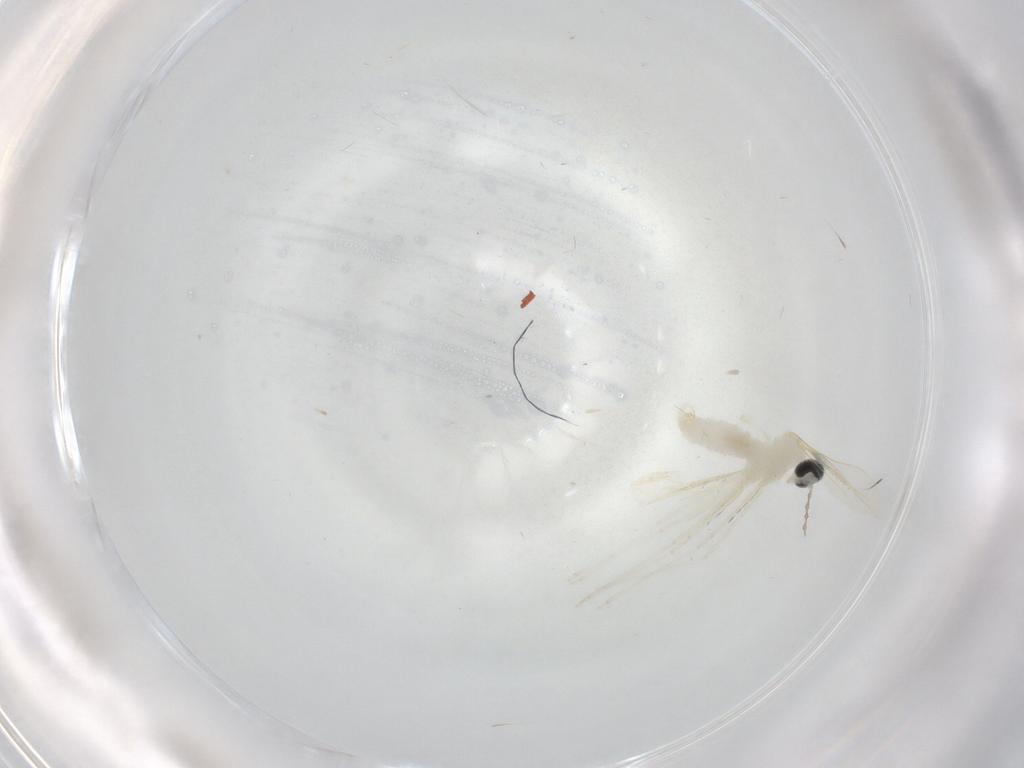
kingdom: Animalia
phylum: Arthropoda
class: Insecta
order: Diptera
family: Cecidomyiidae
